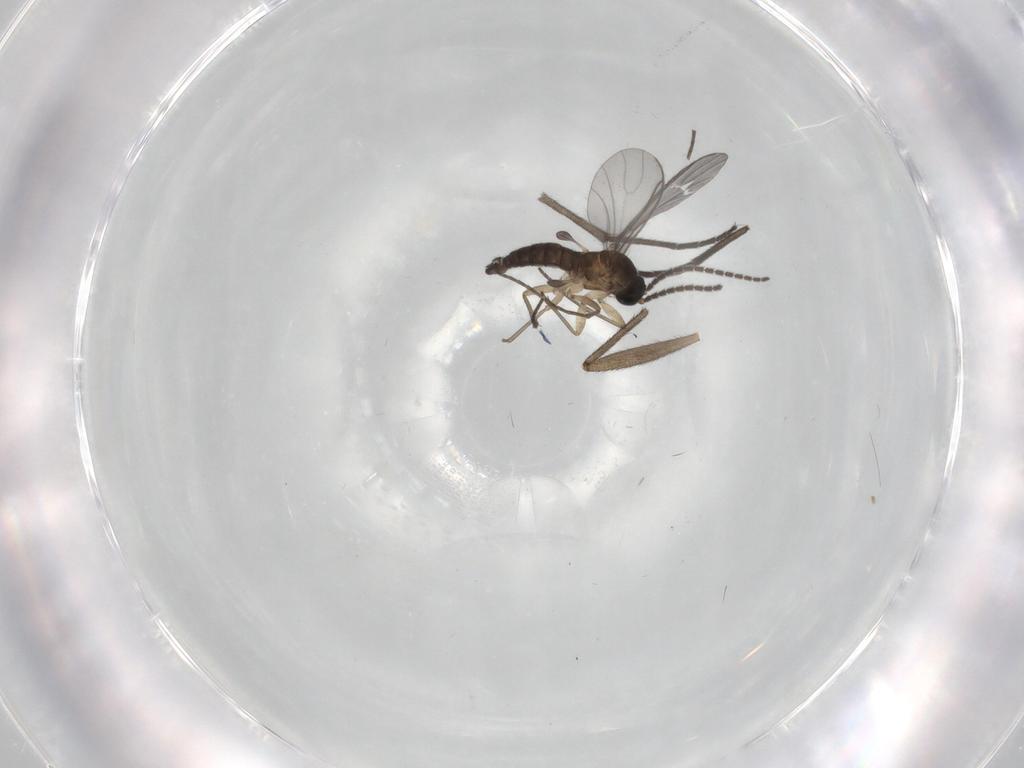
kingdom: Animalia
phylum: Arthropoda
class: Insecta
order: Diptera
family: Sciaridae
